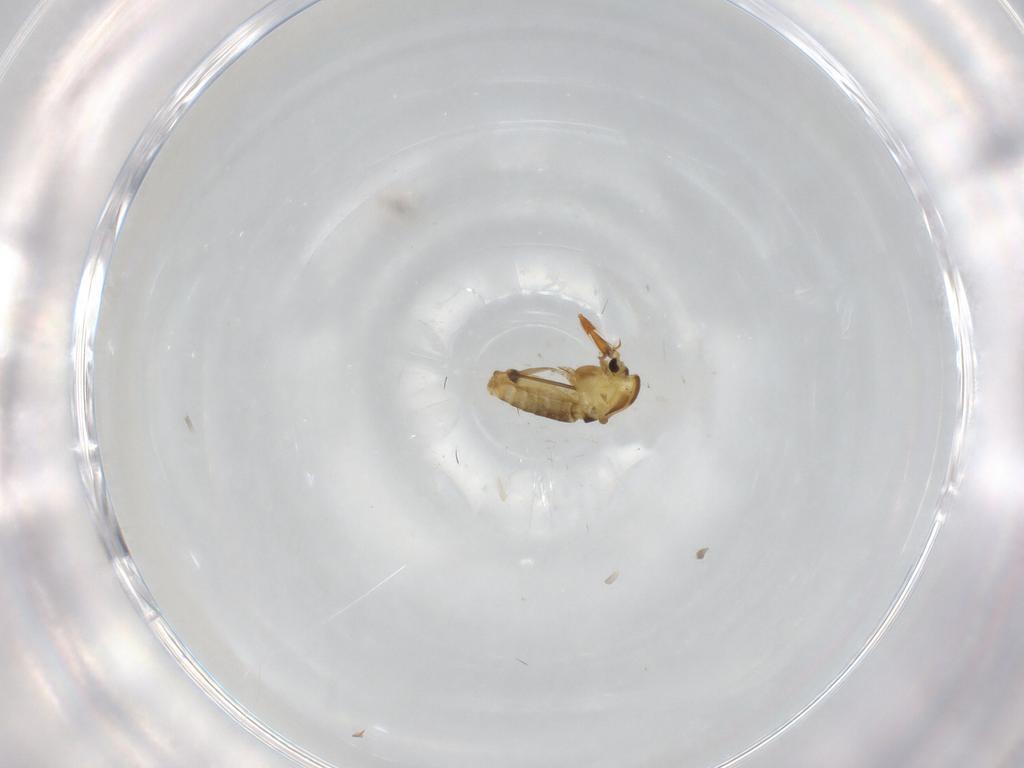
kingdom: Animalia
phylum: Arthropoda
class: Insecta
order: Diptera
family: Chironomidae
